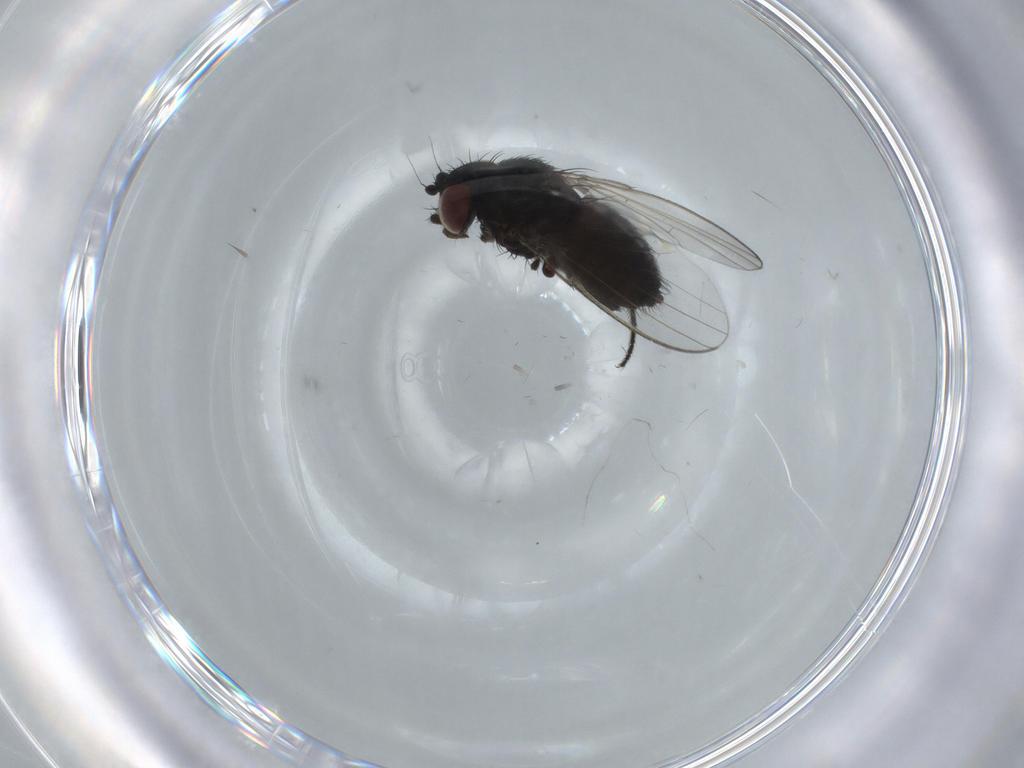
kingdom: Animalia
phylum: Arthropoda
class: Insecta
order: Diptera
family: Milichiidae
